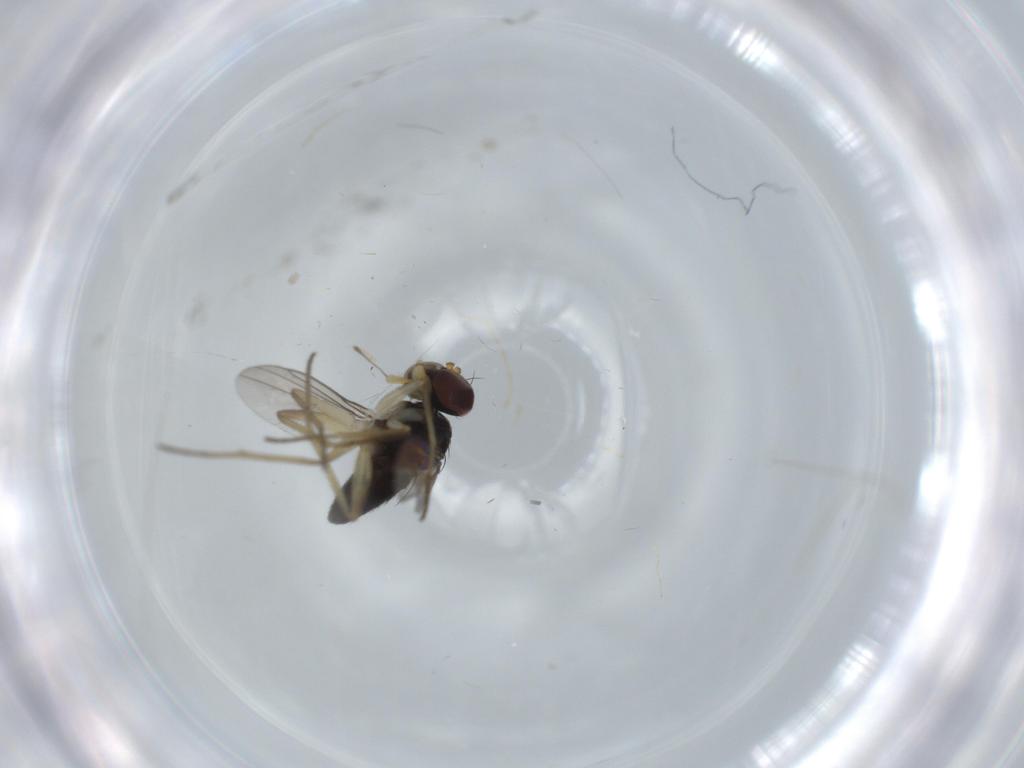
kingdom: Animalia
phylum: Arthropoda
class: Insecta
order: Diptera
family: Dolichopodidae
